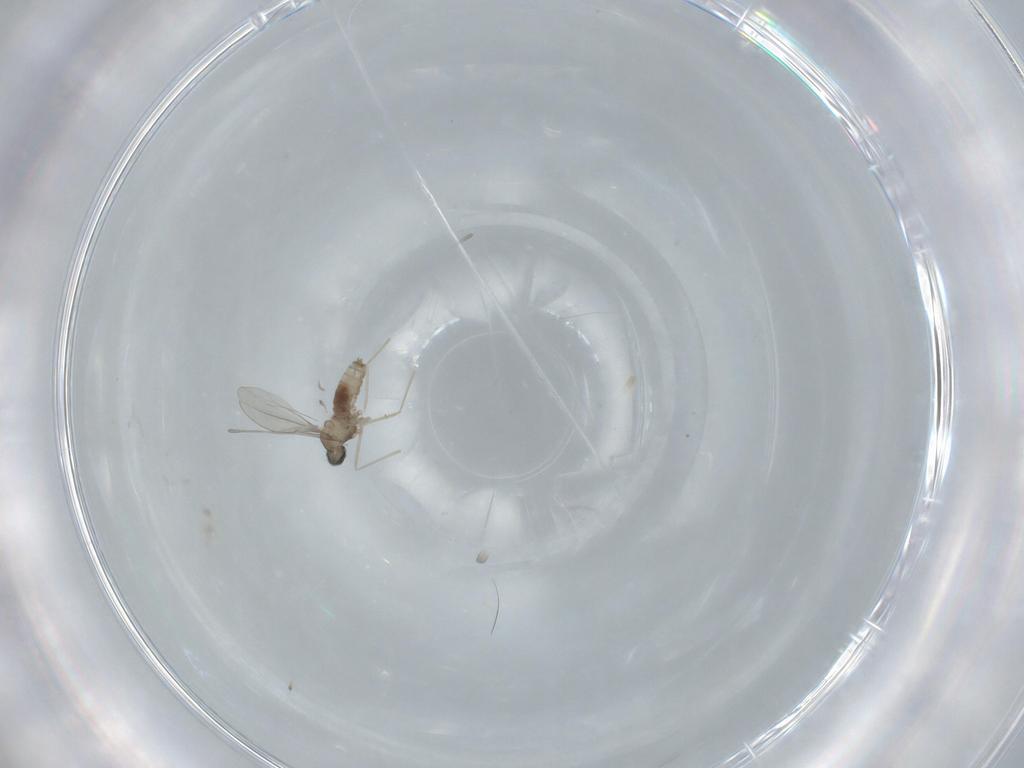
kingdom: Animalia
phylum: Arthropoda
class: Insecta
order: Diptera
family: Cecidomyiidae
